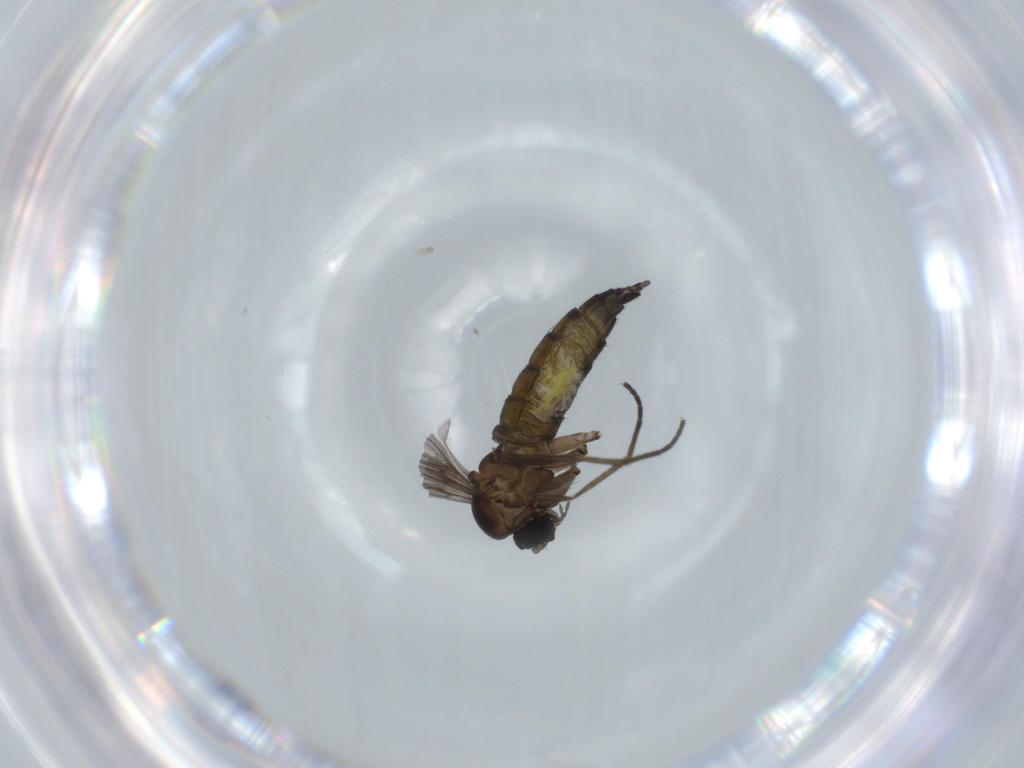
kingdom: Animalia
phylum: Arthropoda
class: Insecta
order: Diptera
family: Sciaridae
